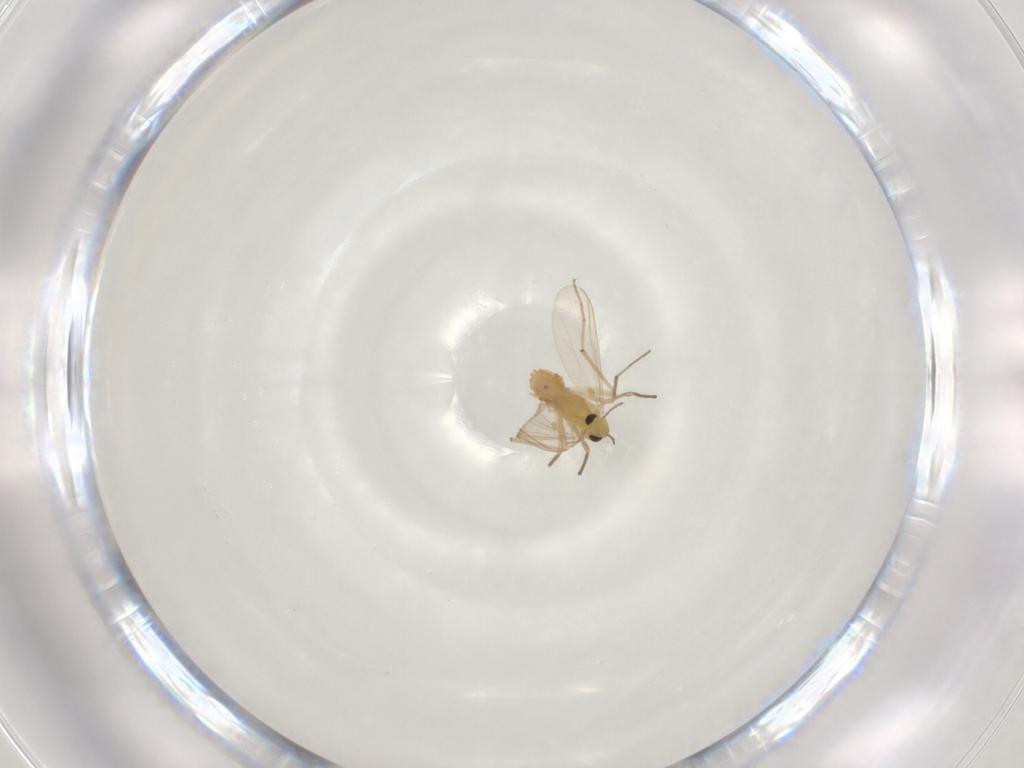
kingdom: Animalia
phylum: Arthropoda
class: Insecta
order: Diptera
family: Chironomidae
